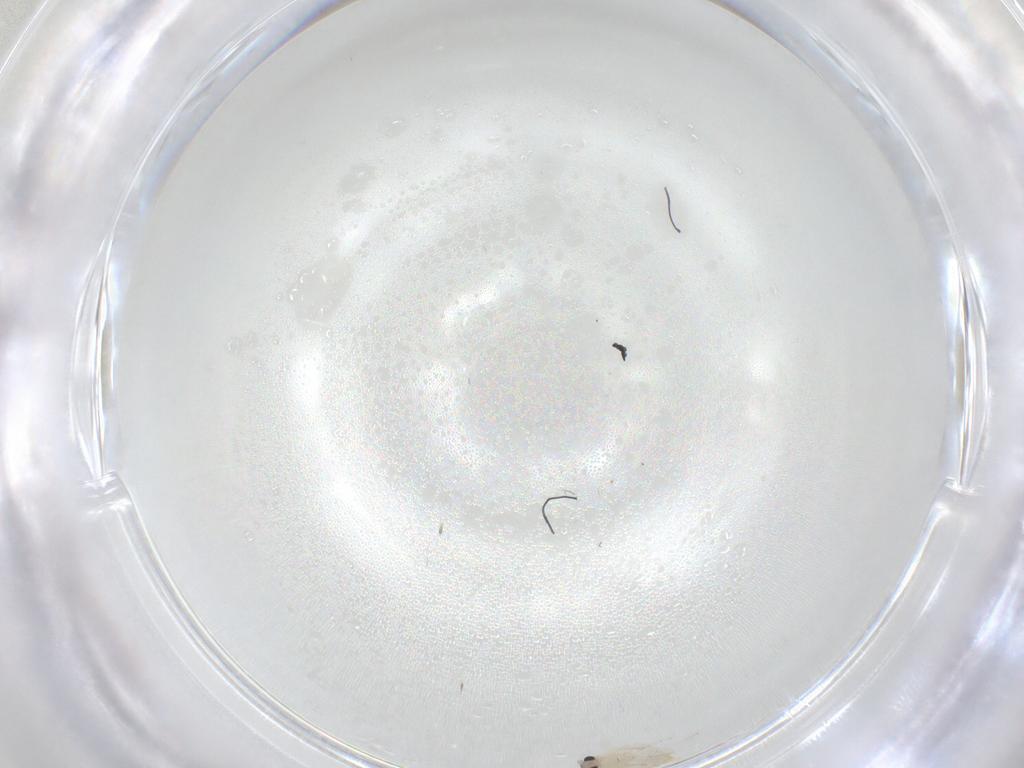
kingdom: Animalia
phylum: Arthropoda
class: Insecta
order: Diptera
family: Cecidomyiidae
